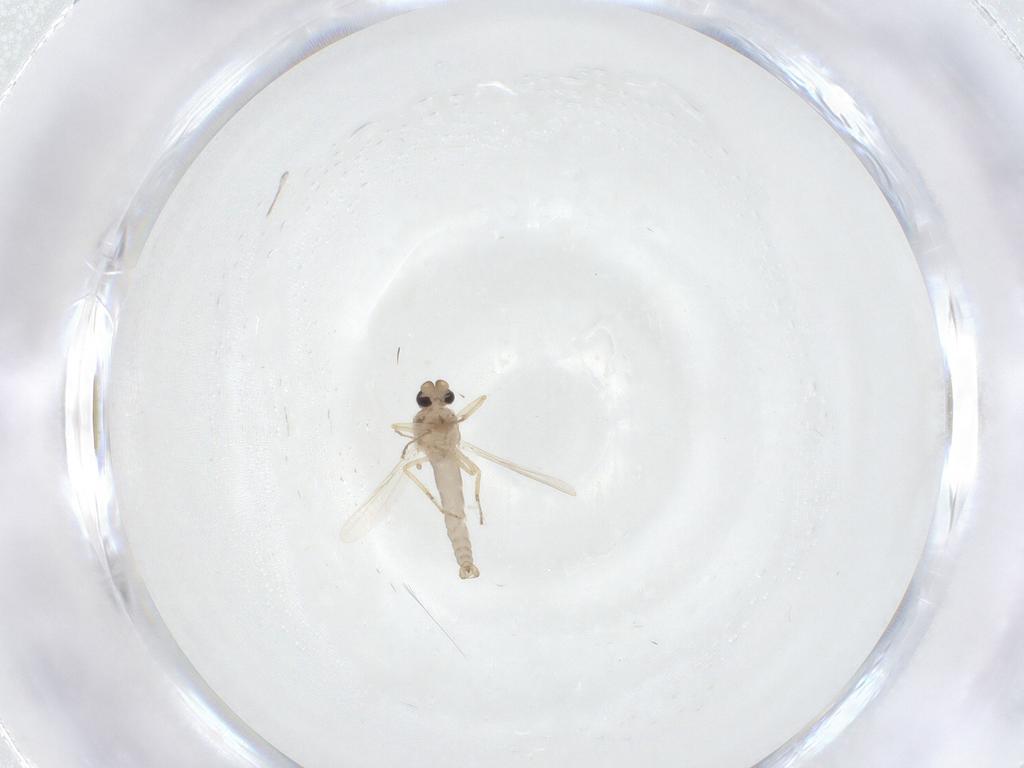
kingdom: Animalia
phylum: Arthropoda
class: Insecta
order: Diptera
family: Ceratopogonidae
